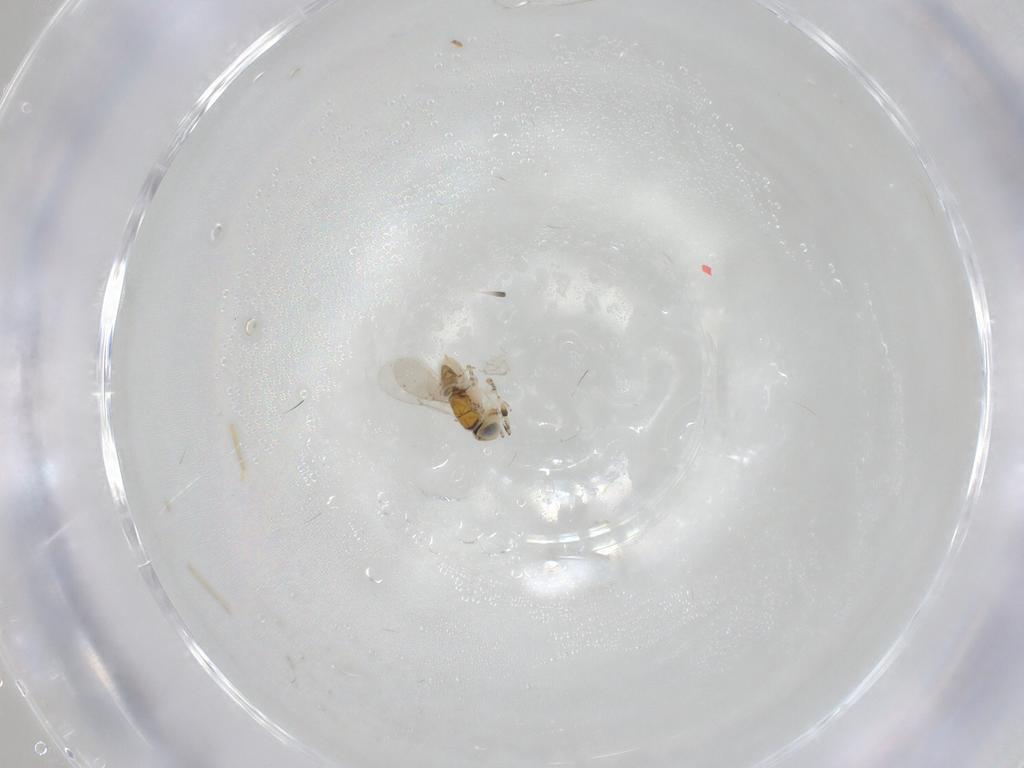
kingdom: Animalia
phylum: Arthropoda
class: Insecta
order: Hymenoptera
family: Encyrtidae
